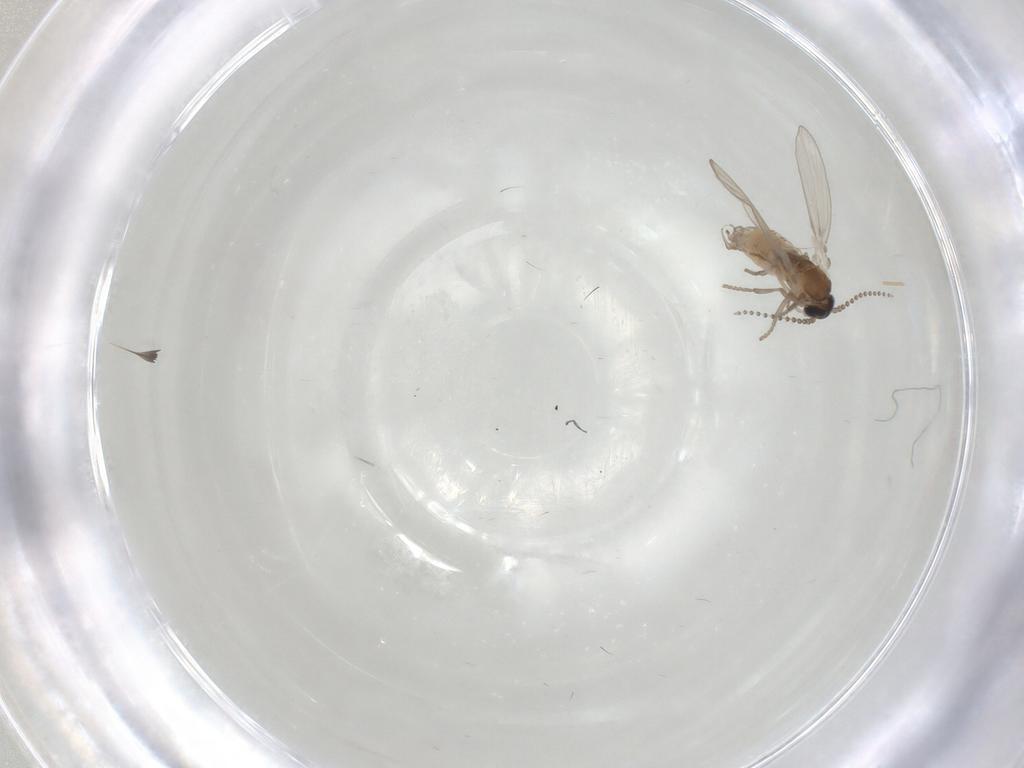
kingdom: Animalia
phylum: Arthropoda
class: Insecta
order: Diptera
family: Psychodidae
